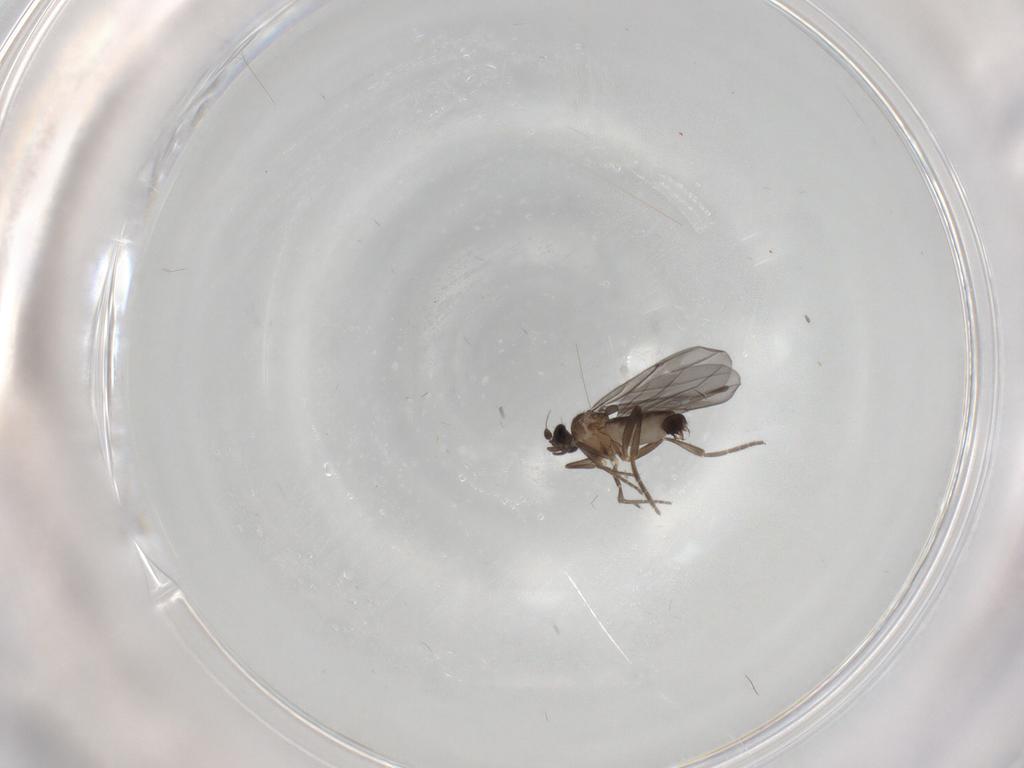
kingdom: Animalia
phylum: Arthropoda
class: Insecta
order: Diptera
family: Phoridae
